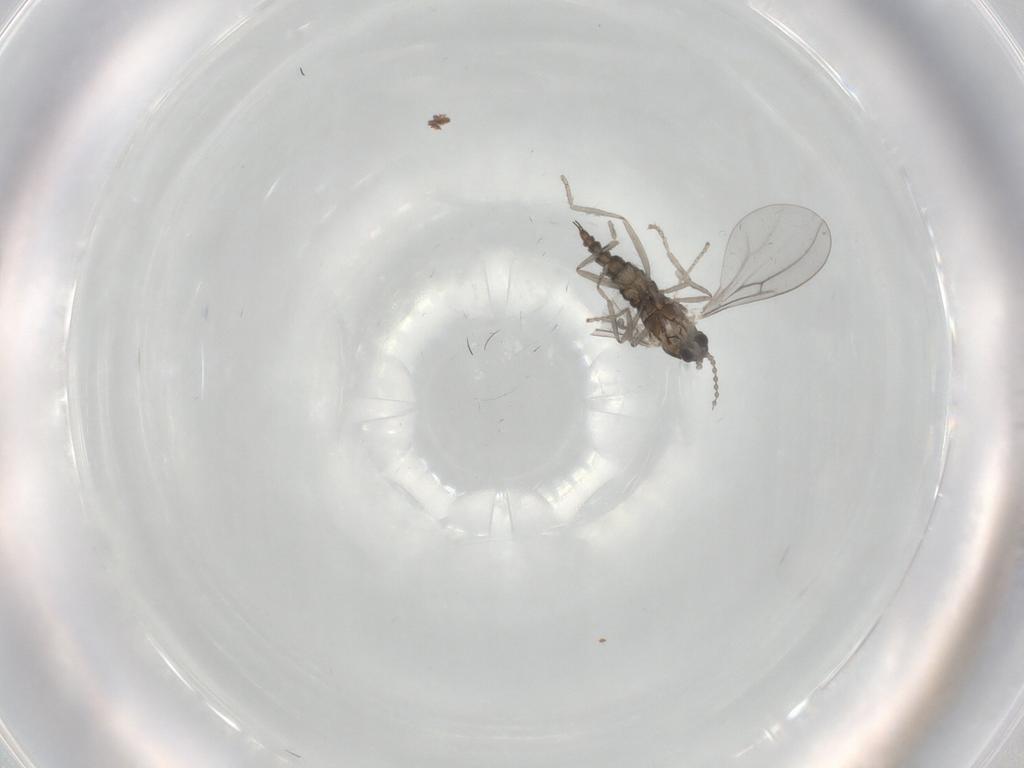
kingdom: Animalia
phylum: Arthropoda
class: Insecta
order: Diptera
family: Cecidomyiidae
